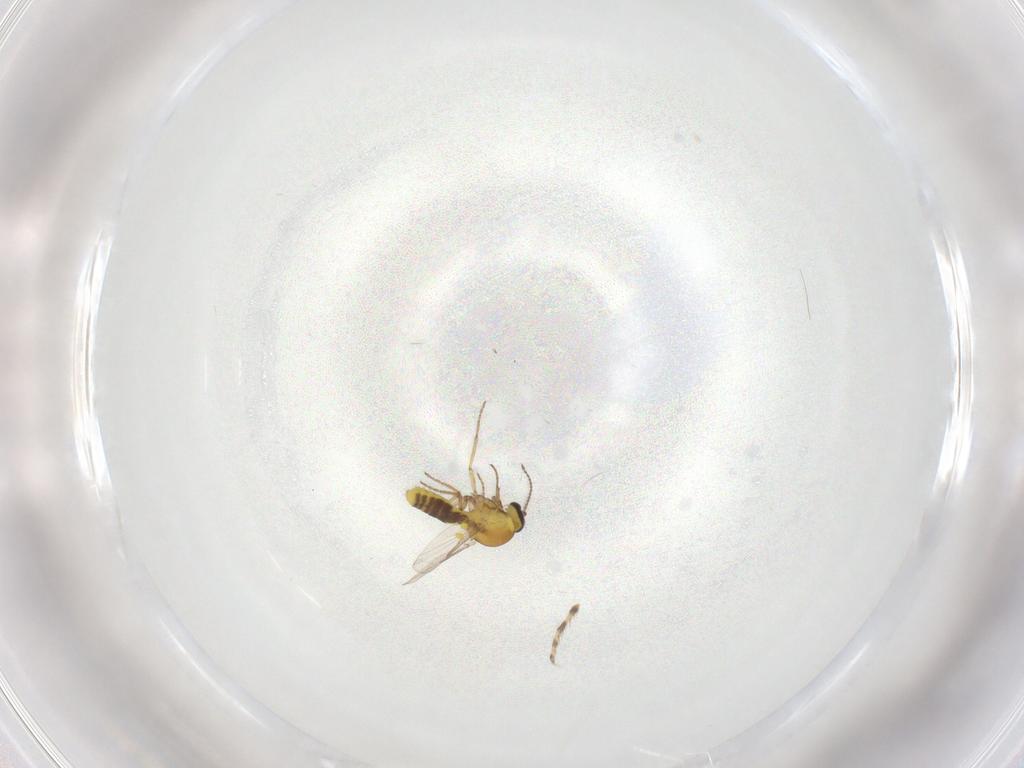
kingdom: Animalia
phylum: Arthropoda
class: Insecta
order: Diptera
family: Ceratopogonidae
